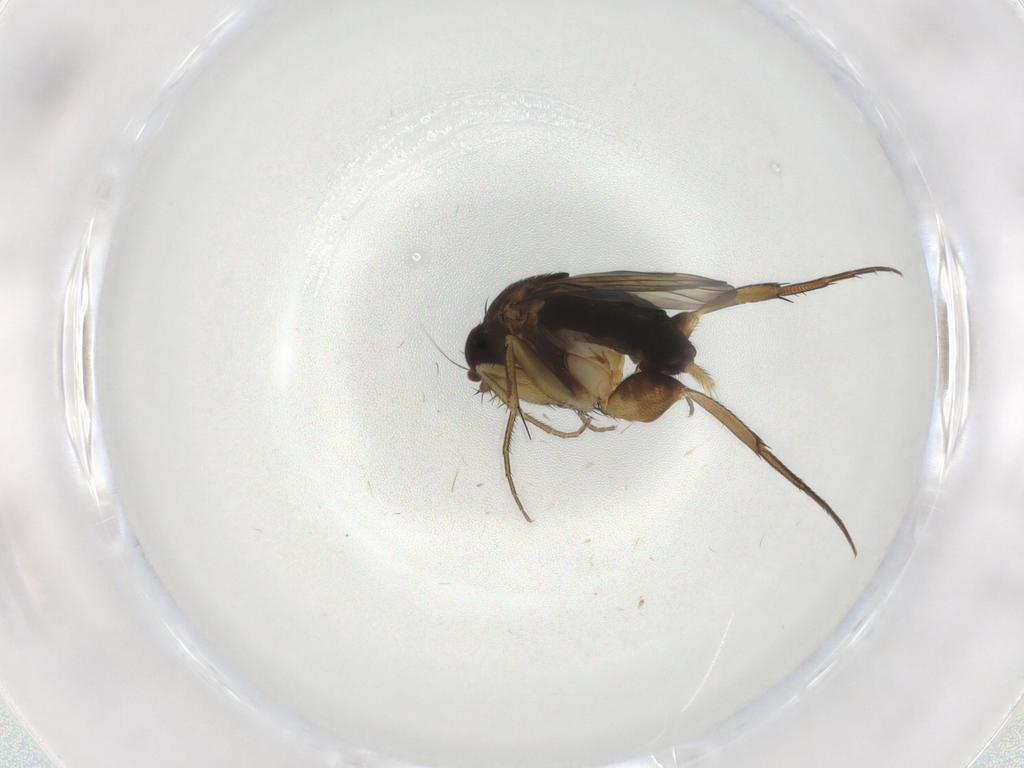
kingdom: Animalia
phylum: Arthropoda
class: Insecta
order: Diptera
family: Phoridae
